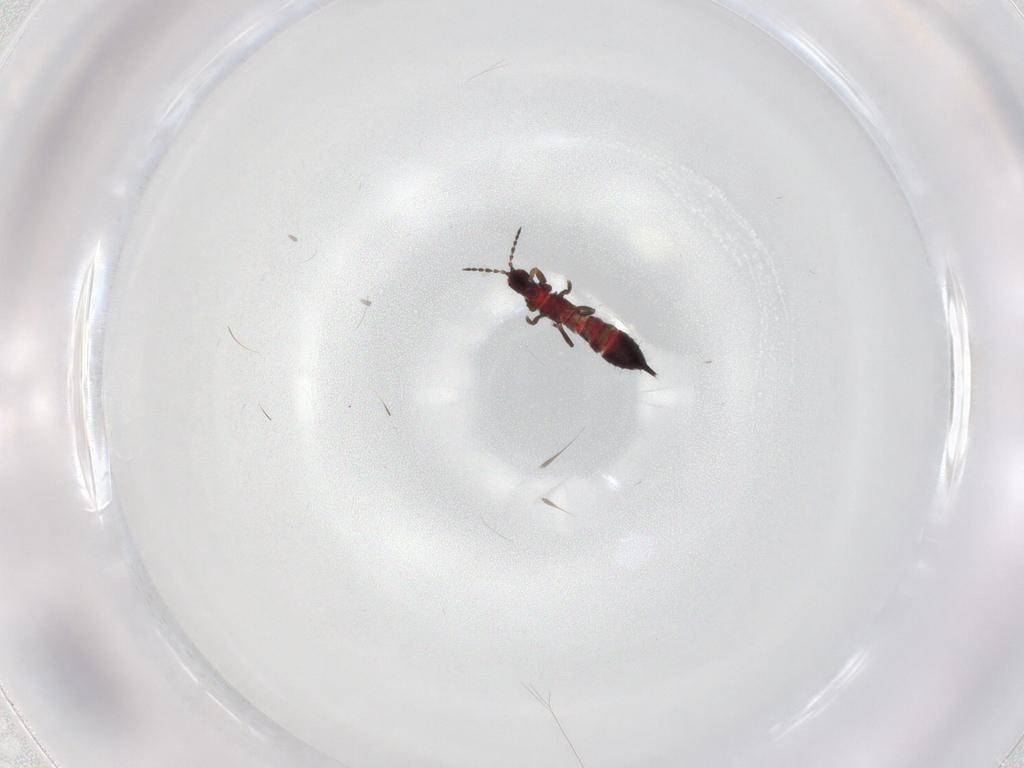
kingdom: Animalia
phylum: Arthropoda
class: Insecta
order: Thysanoptera
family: Phlaeothripidae
